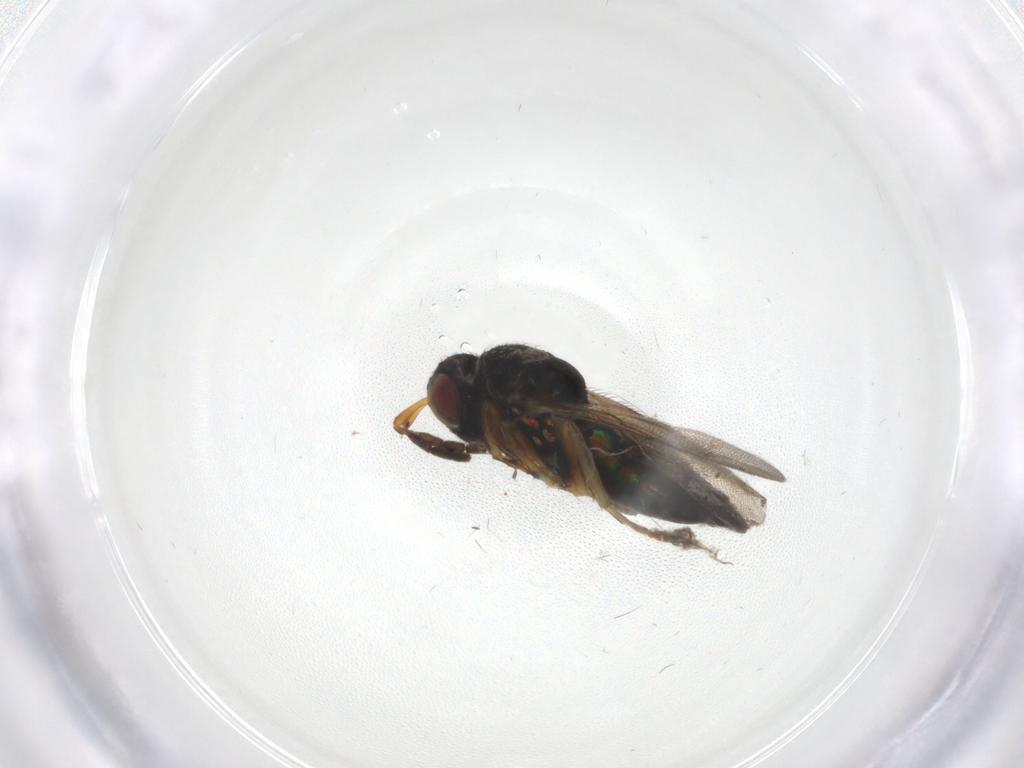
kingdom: Animalia
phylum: Arthropoda
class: Insecta
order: Hymenoptera
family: Pteromalidae
